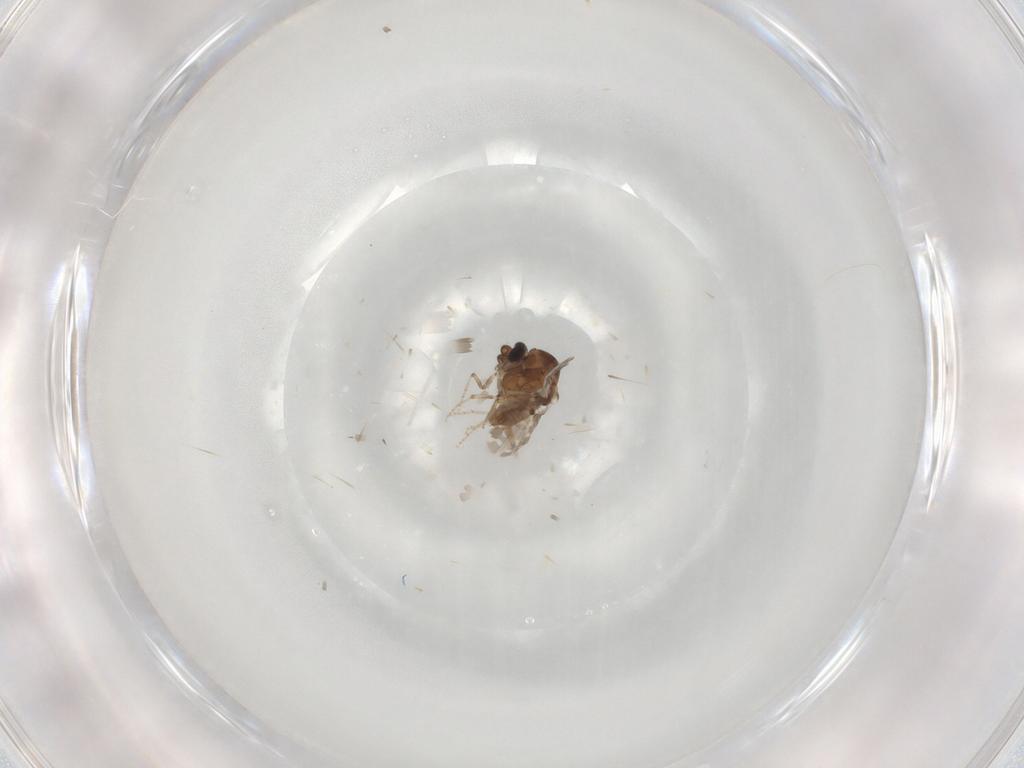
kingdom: Animalia
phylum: Arthropoda
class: Insecta
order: Diptera
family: Ceratopogonidae
